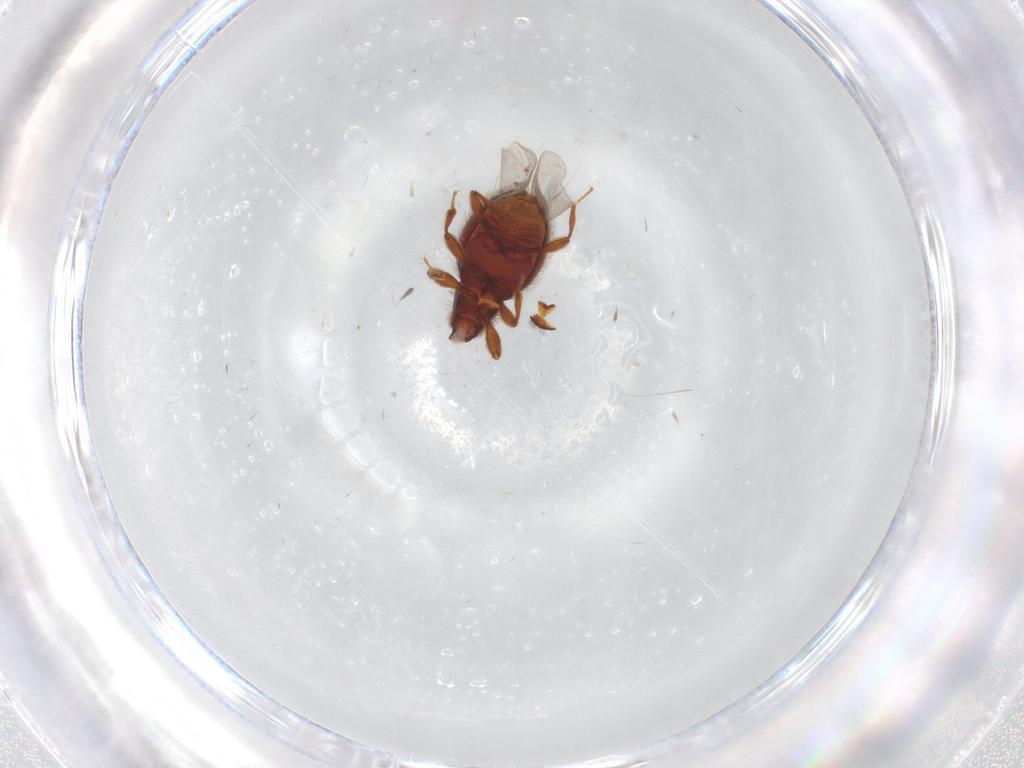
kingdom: Animalia
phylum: Arthropoda
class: Insecta
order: Coleoptera
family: Staphylinidae
